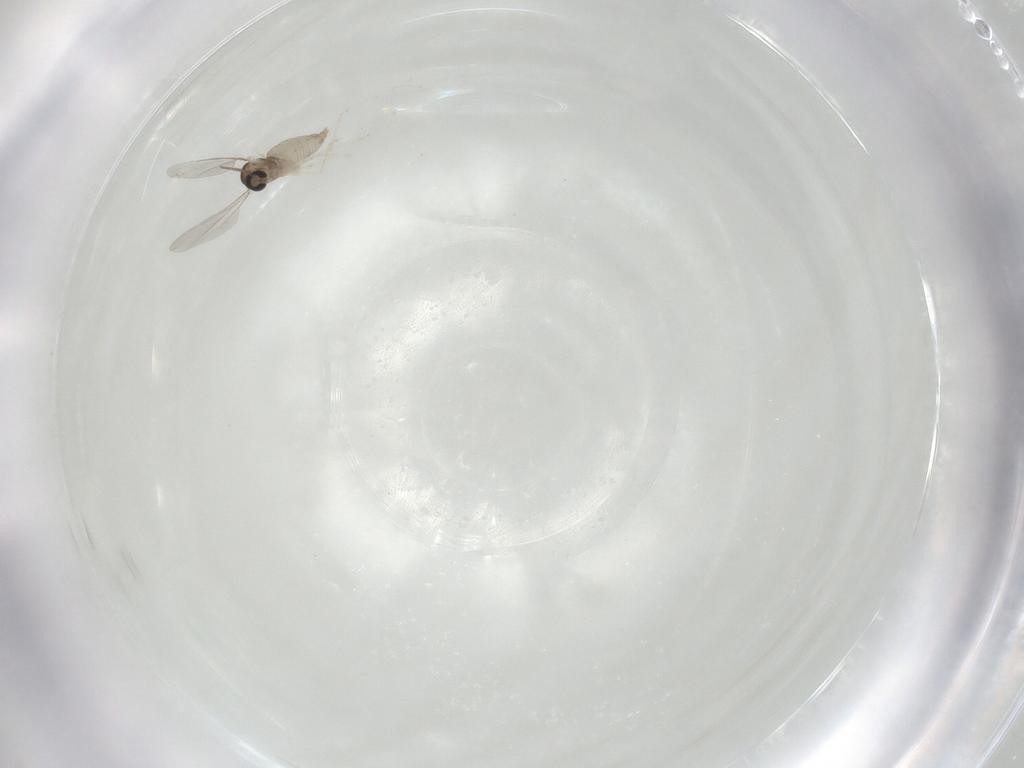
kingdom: Animalia
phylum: Arthropoda
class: Insecta
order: Diptera
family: Cecidomyiidae
